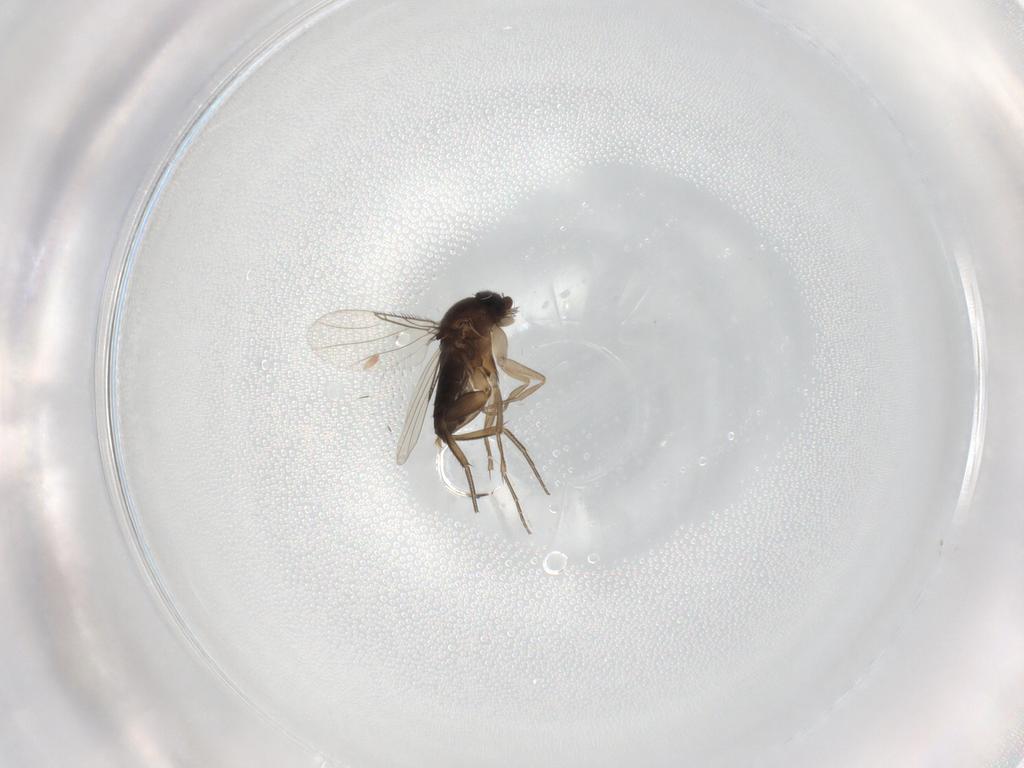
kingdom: Animalia
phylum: Arthropoda
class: Insecta
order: Diptera
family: Phoridae
